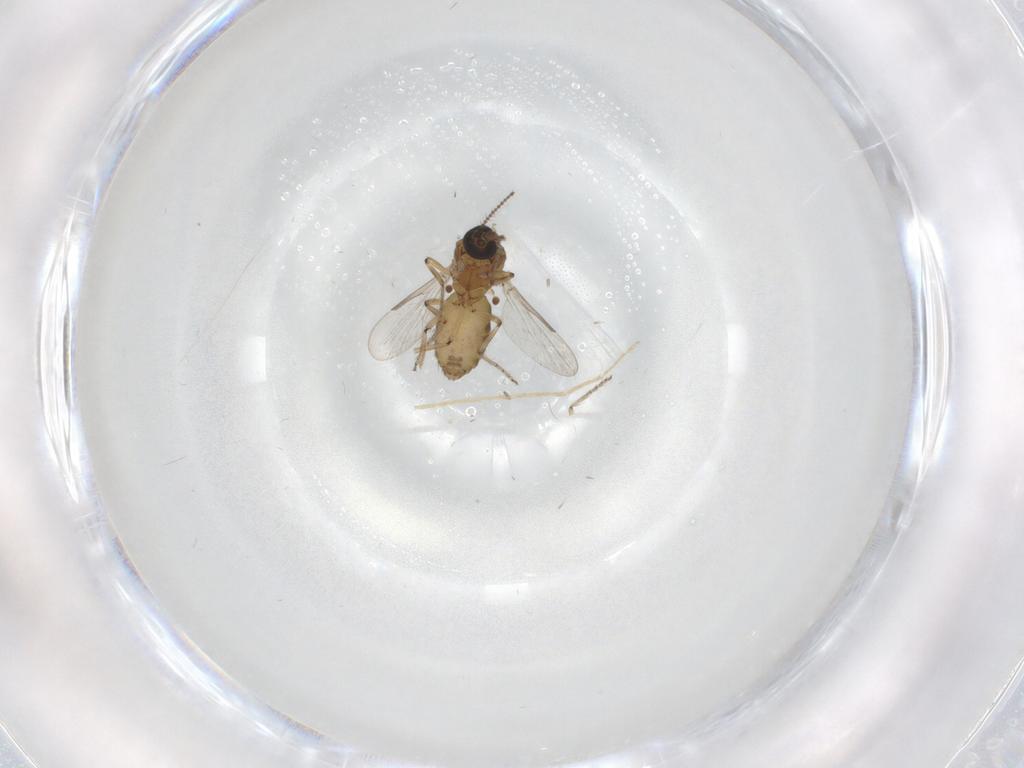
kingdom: Animalia
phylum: Arthropoda
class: Insecta
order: Diptera
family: Ceratopogonidae
